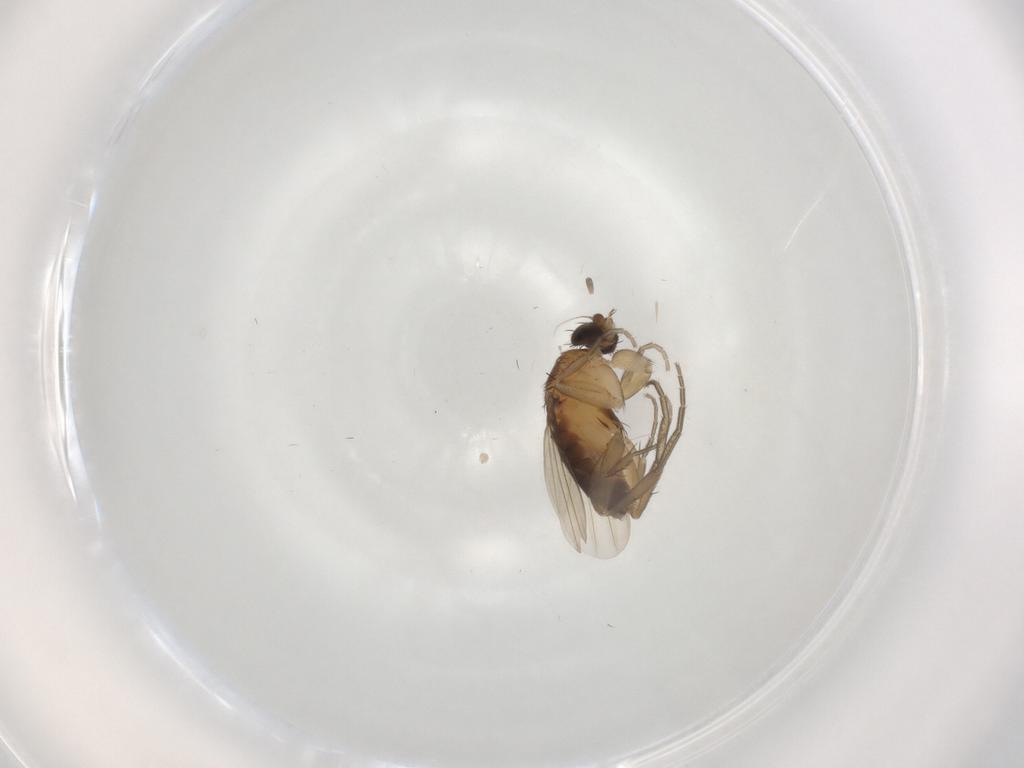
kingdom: Animalia
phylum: Arthropoda
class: Insecta
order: Diptera
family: Phoridae
